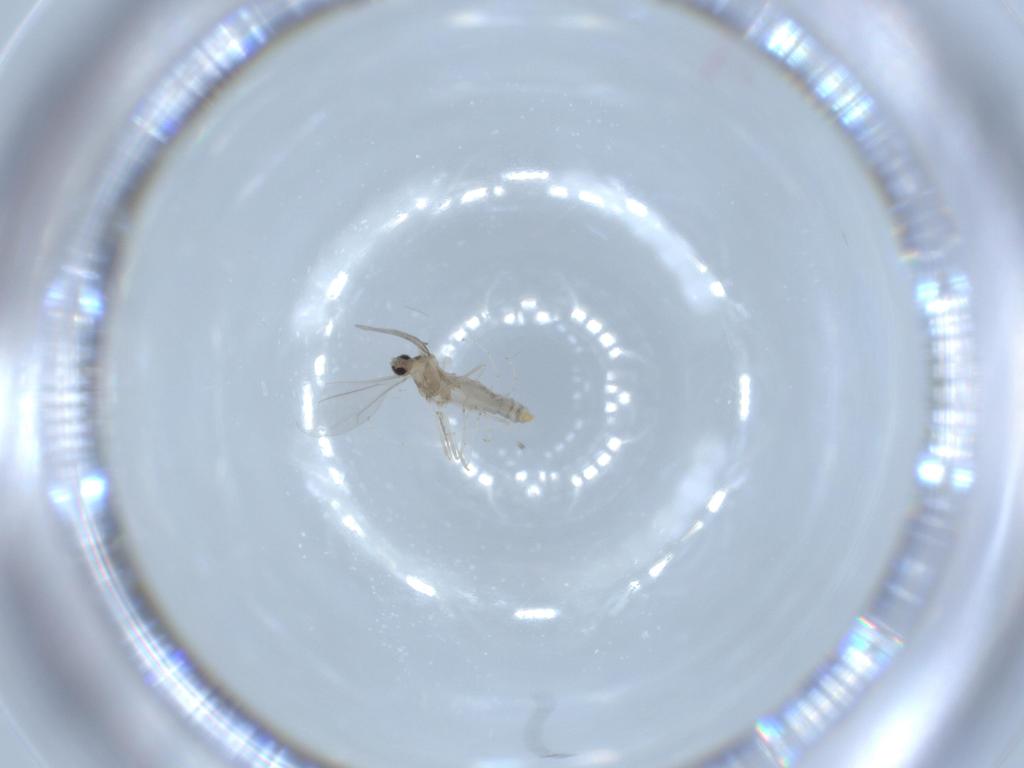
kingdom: Animalia
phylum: Arthropoda
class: Insecta
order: Diptera
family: Cecidomyiidae
